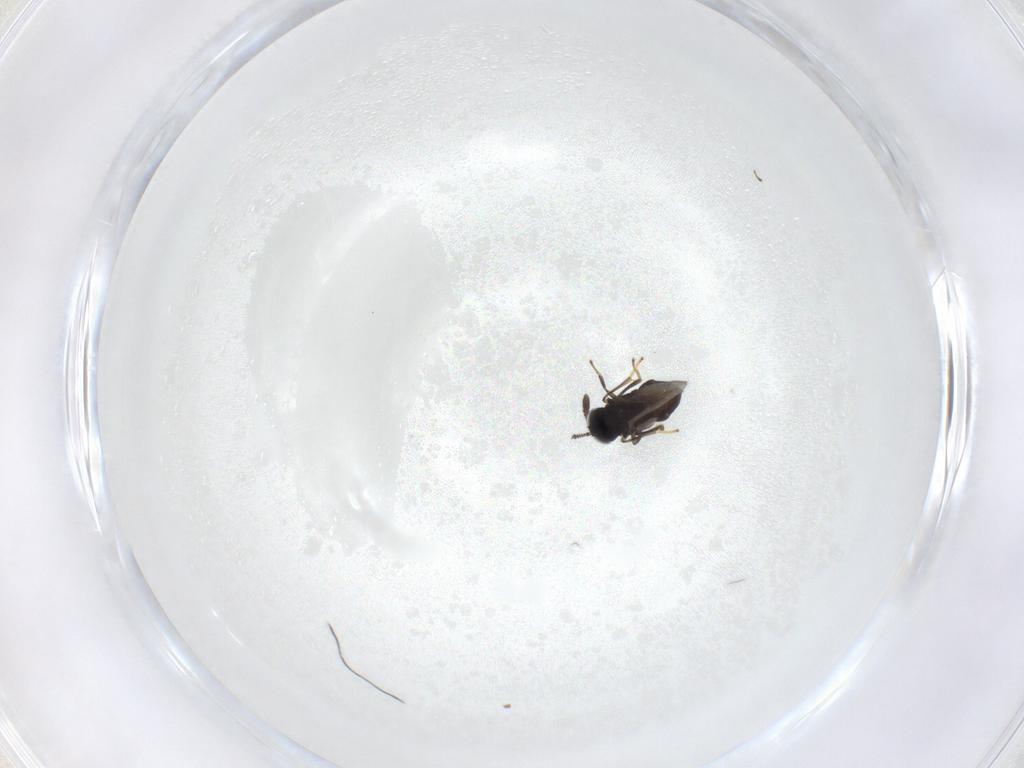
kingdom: Animalia
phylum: Arthropoda
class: Insecta
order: Hymenoptera
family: Encyrtidae
